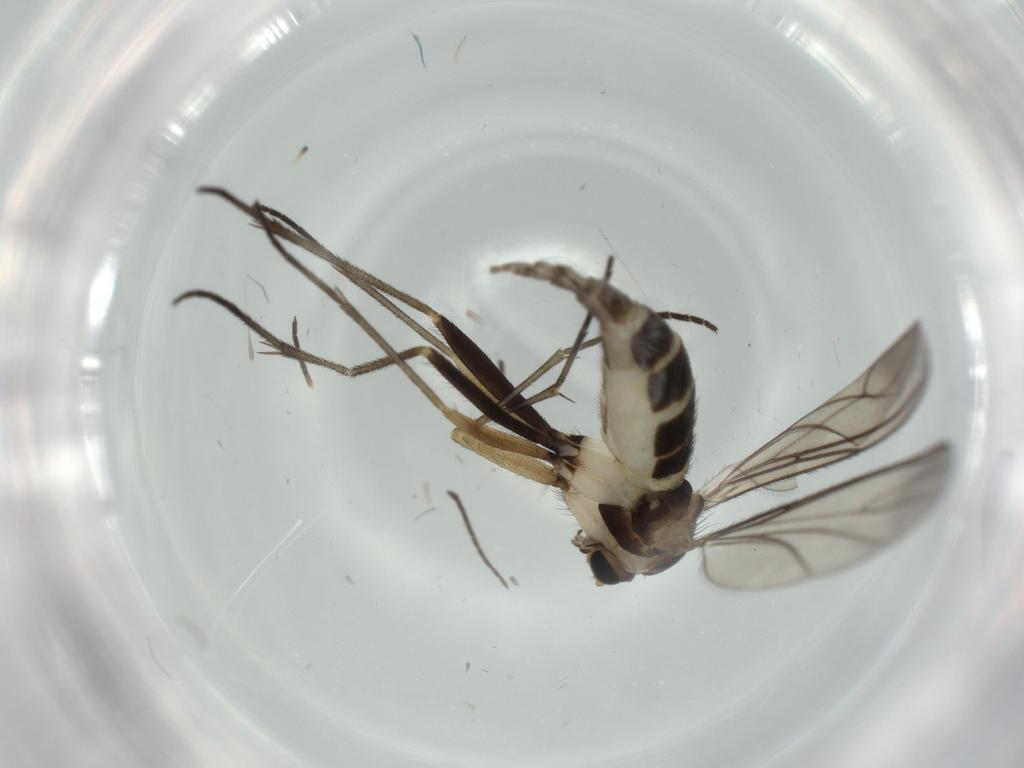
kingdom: Animalia
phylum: Arthropoda
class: Insecta
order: Diptera
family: Sciaridae
